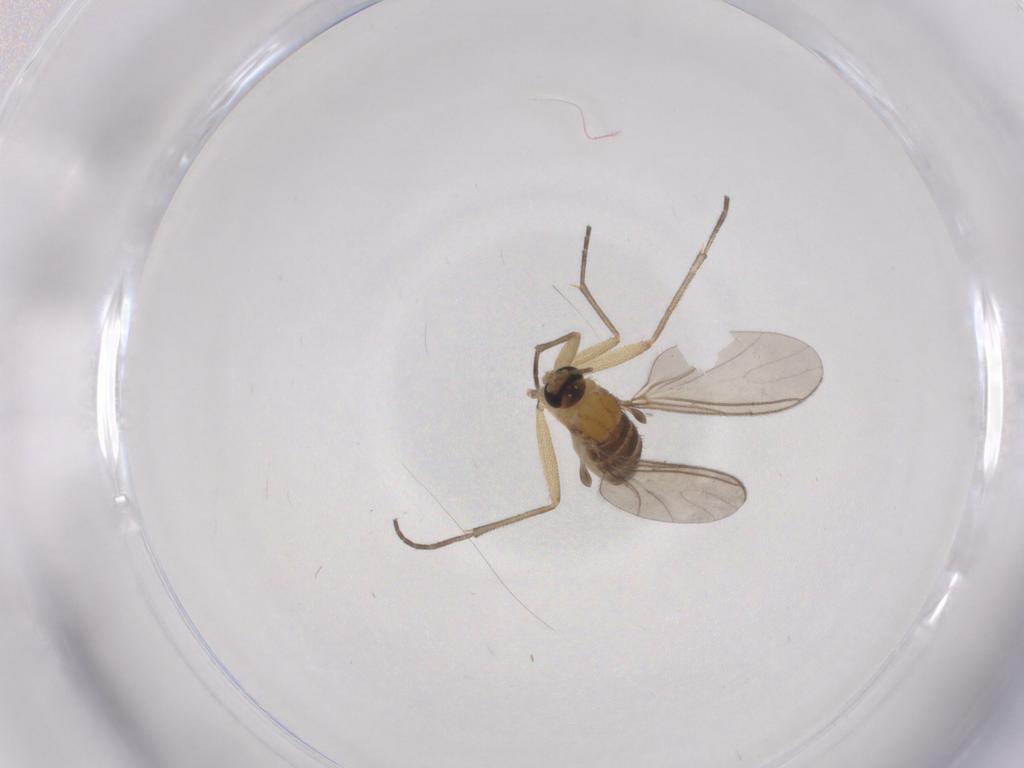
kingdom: Animalia
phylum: Arthropoda
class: Insecta
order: Diptera
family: Sciaridae
